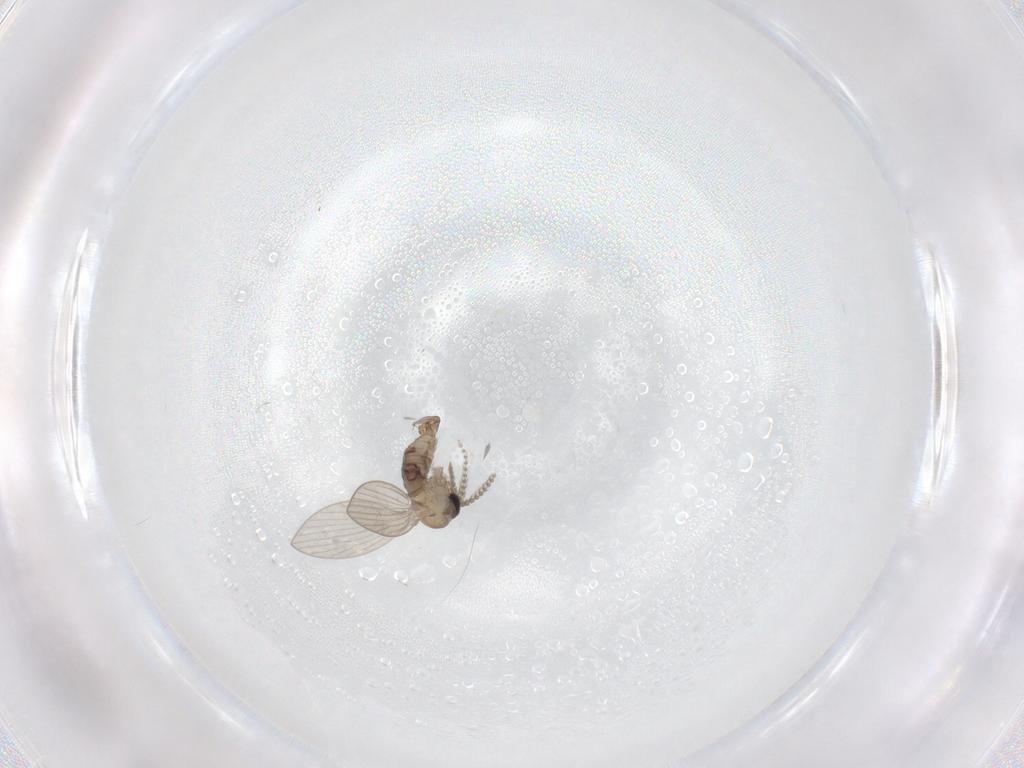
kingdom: Animalia
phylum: Arthropoda
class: Insecta
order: Diptera
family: Psychodidae
